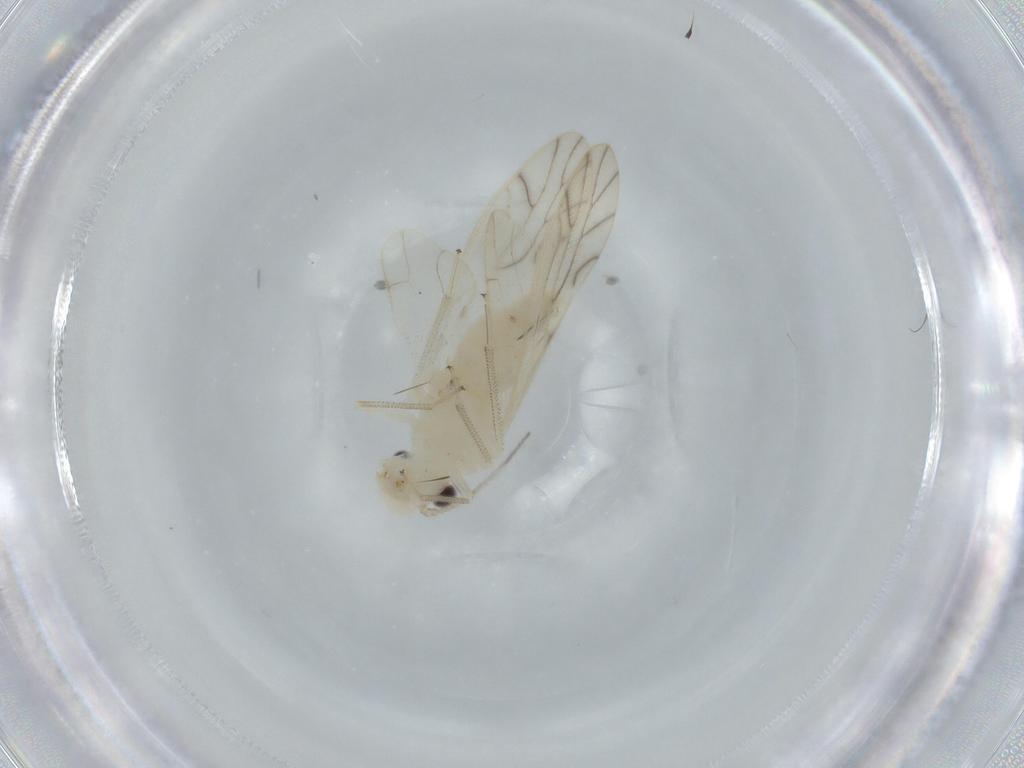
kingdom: Animalia
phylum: Arthropoda
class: Insecta
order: Psocodea
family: Caeciliusidae
